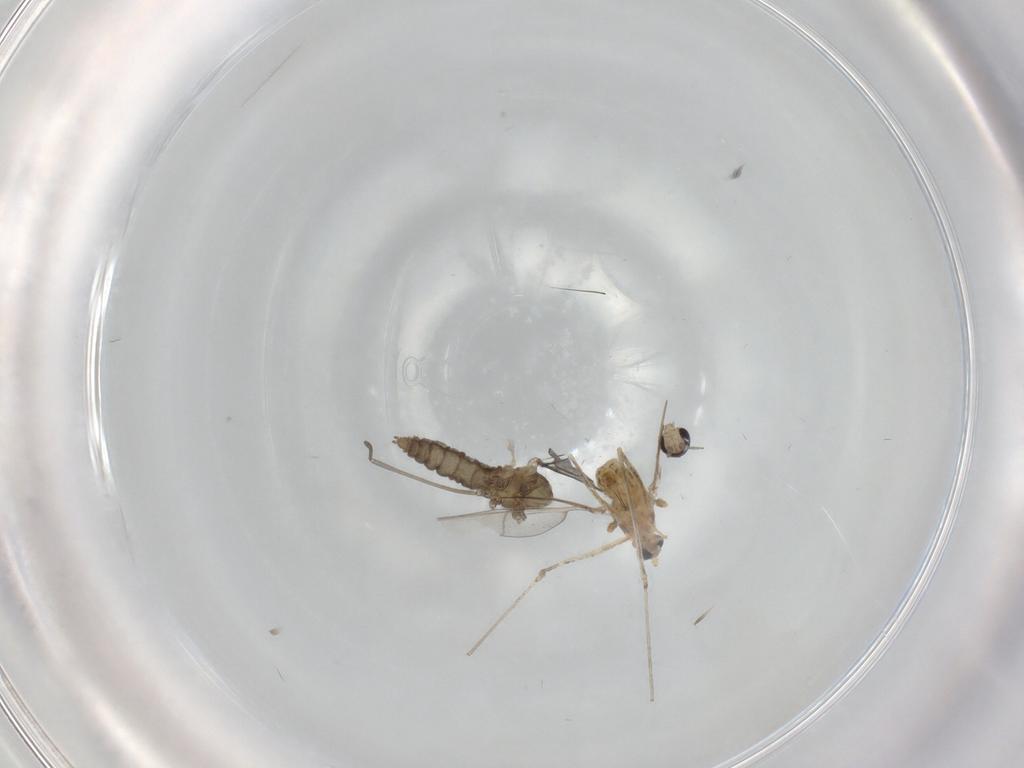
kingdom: Animalia
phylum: Arthropoda
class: Insecta
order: Diptera
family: Cecidomyiidae
